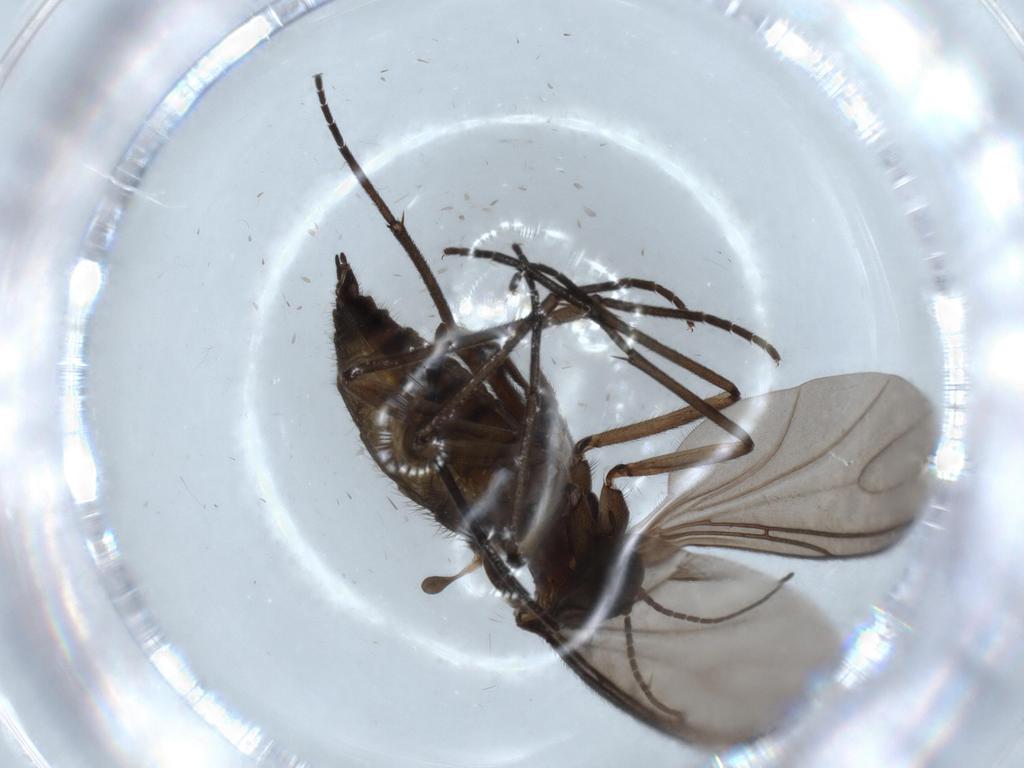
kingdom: Animalia
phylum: Arthropoda
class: Insecta
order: Diptera
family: Sciaridae
